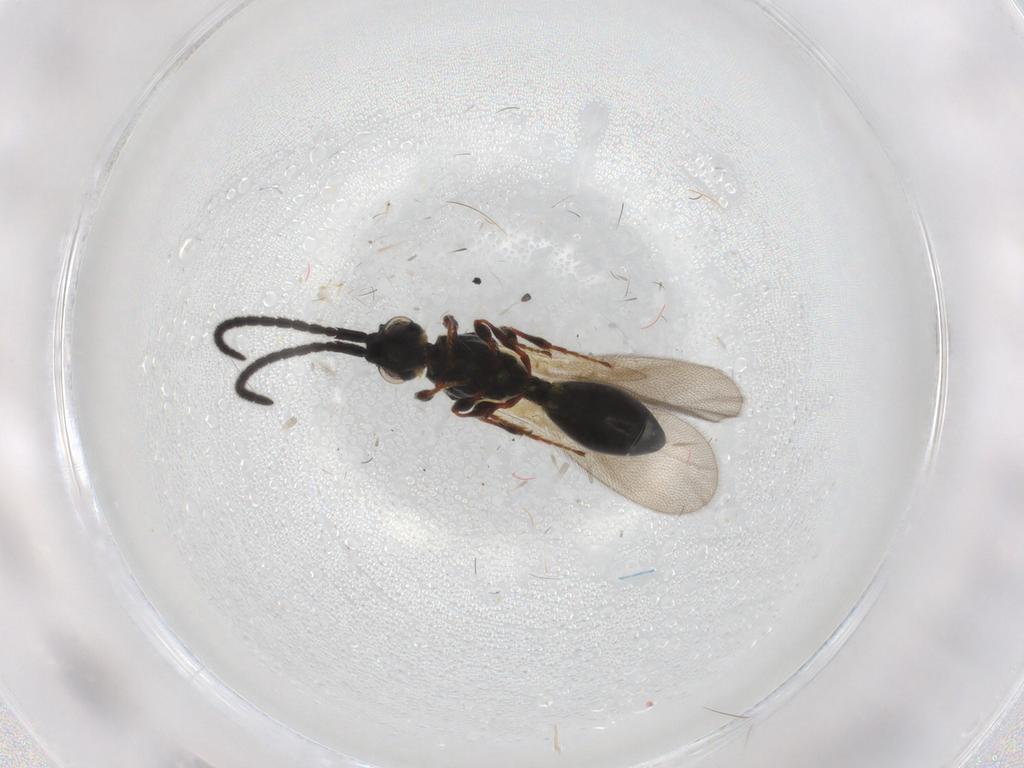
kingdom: Animalia
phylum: Arthropoda
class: Insecta
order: Hymenoptera
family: Diapriidae
